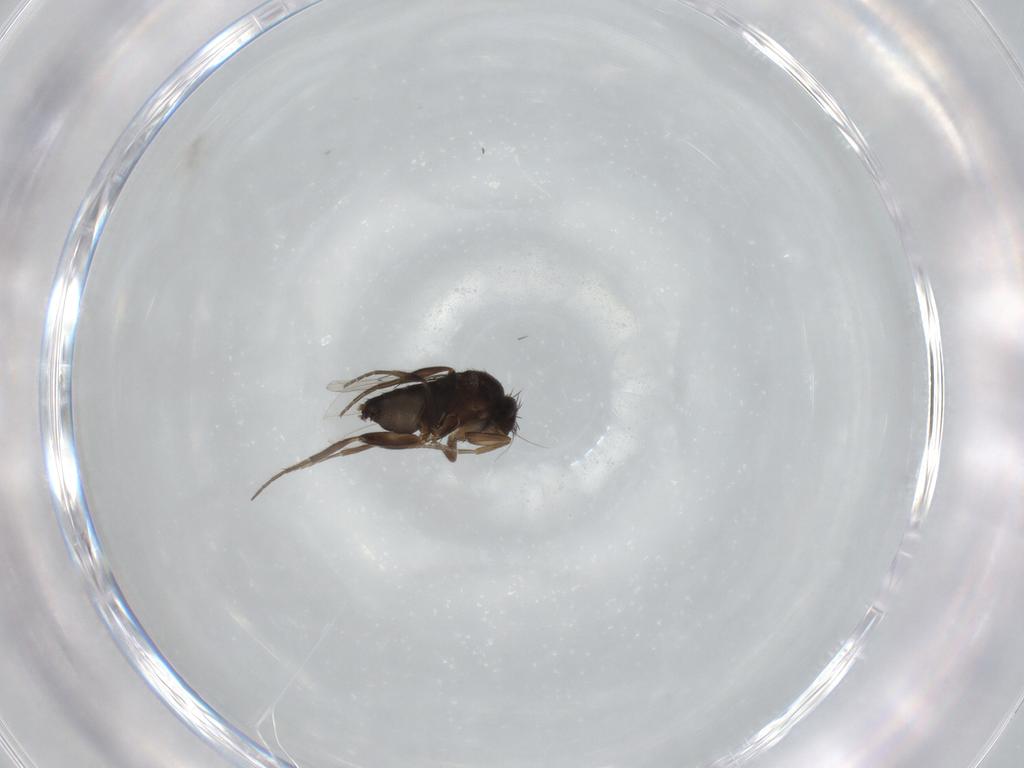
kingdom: Animalia
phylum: Arthropoda
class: Insecta
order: Diptera
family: Phoridae
